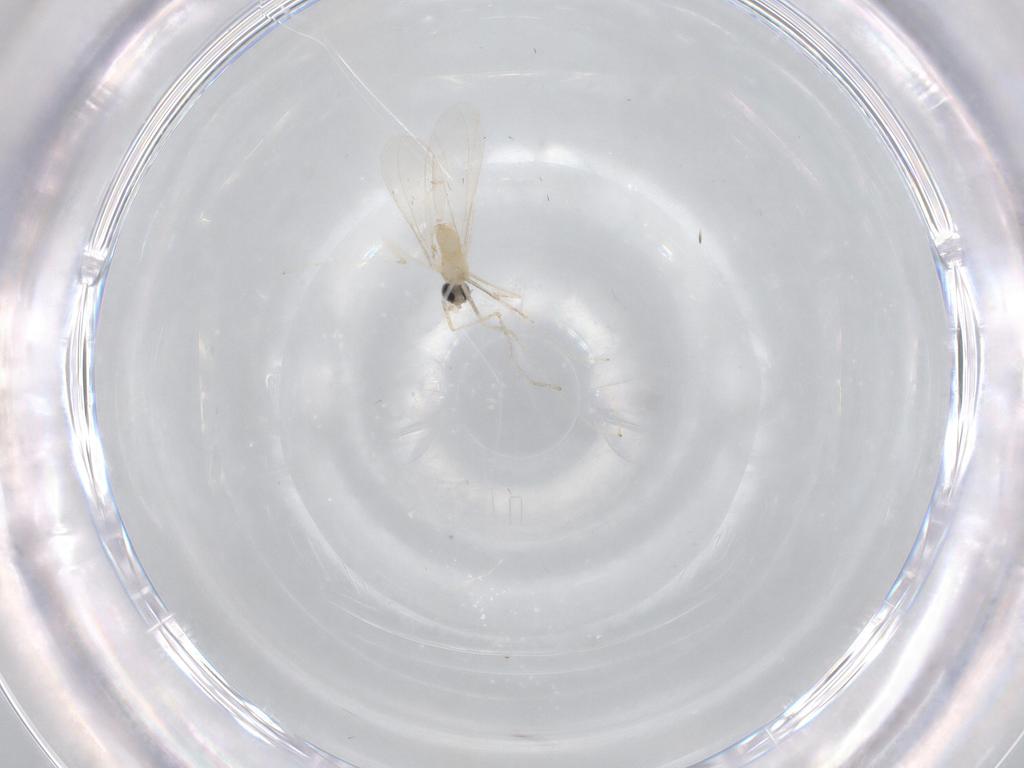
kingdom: Animalia
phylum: Arthropoda
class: Insecta
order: Diptera
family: Cecidomyiidae
